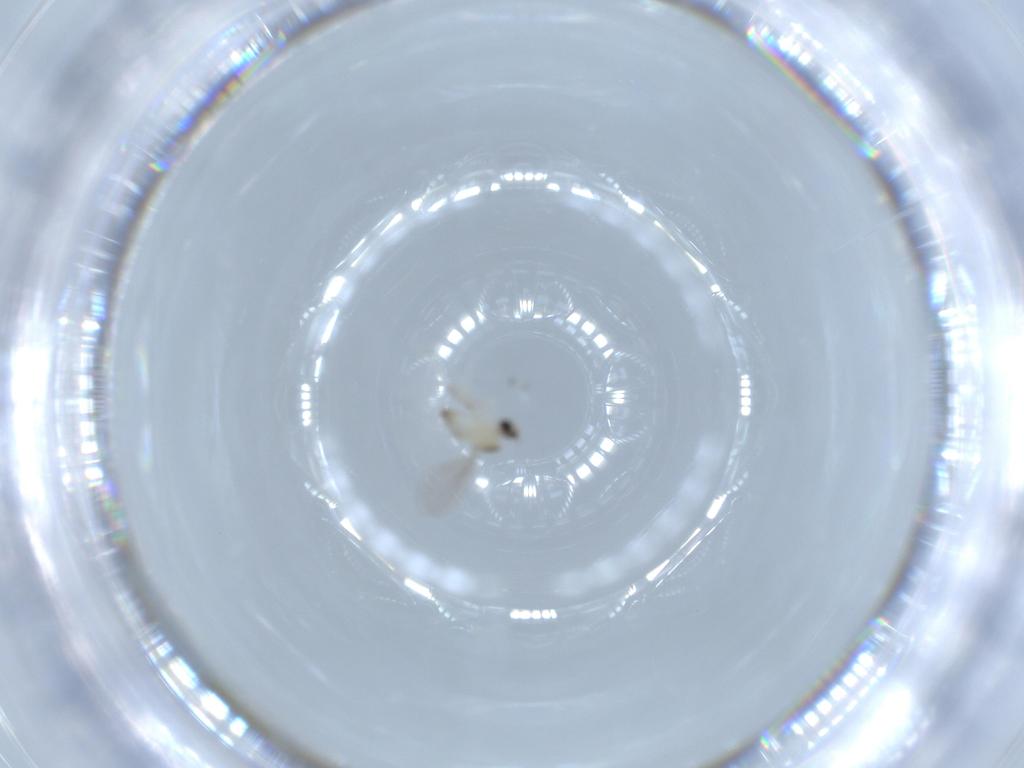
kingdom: Animalia
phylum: Arthropoda
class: Insecta
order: Diptera
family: Cecidomyiidae
